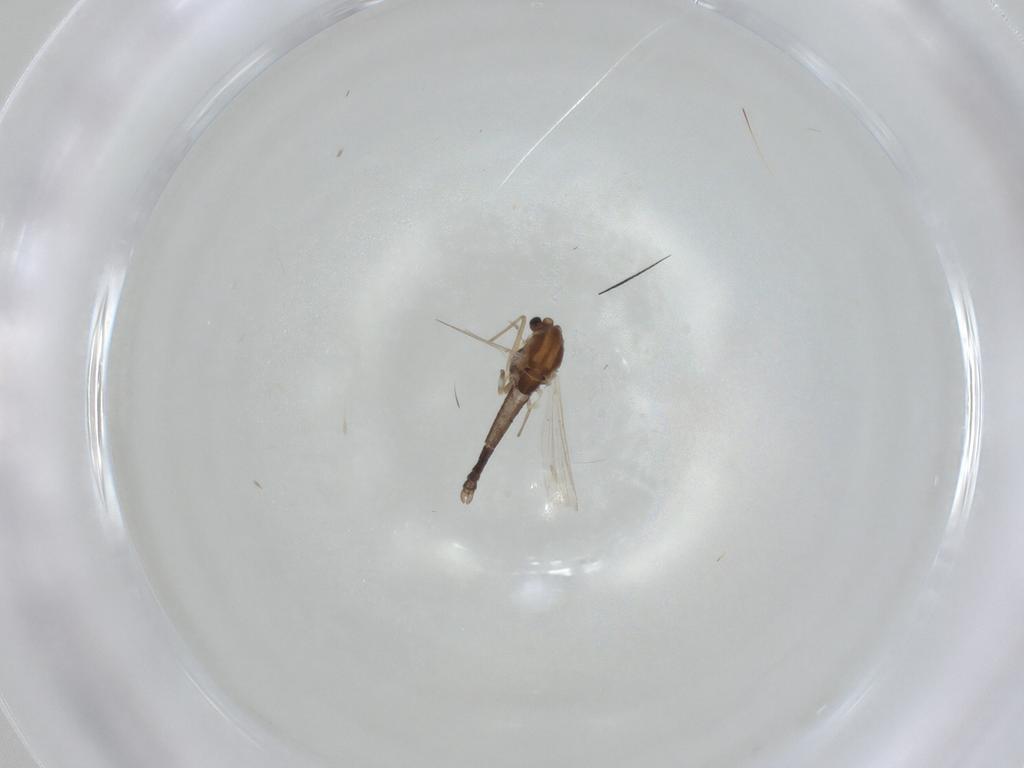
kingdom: Animalia
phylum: Arthropoda
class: Insecta
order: Diptera
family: Chironomidae
